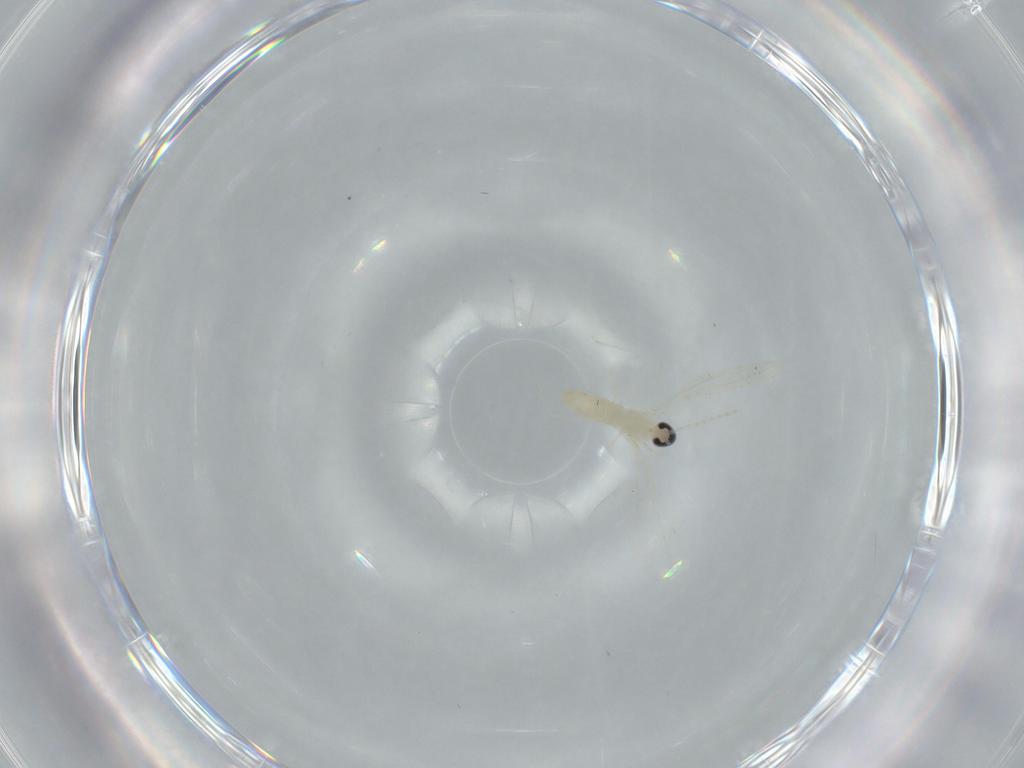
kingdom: Animalia
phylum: Arthropoda
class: Insecta
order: Diptera
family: Cecidomyiidae
